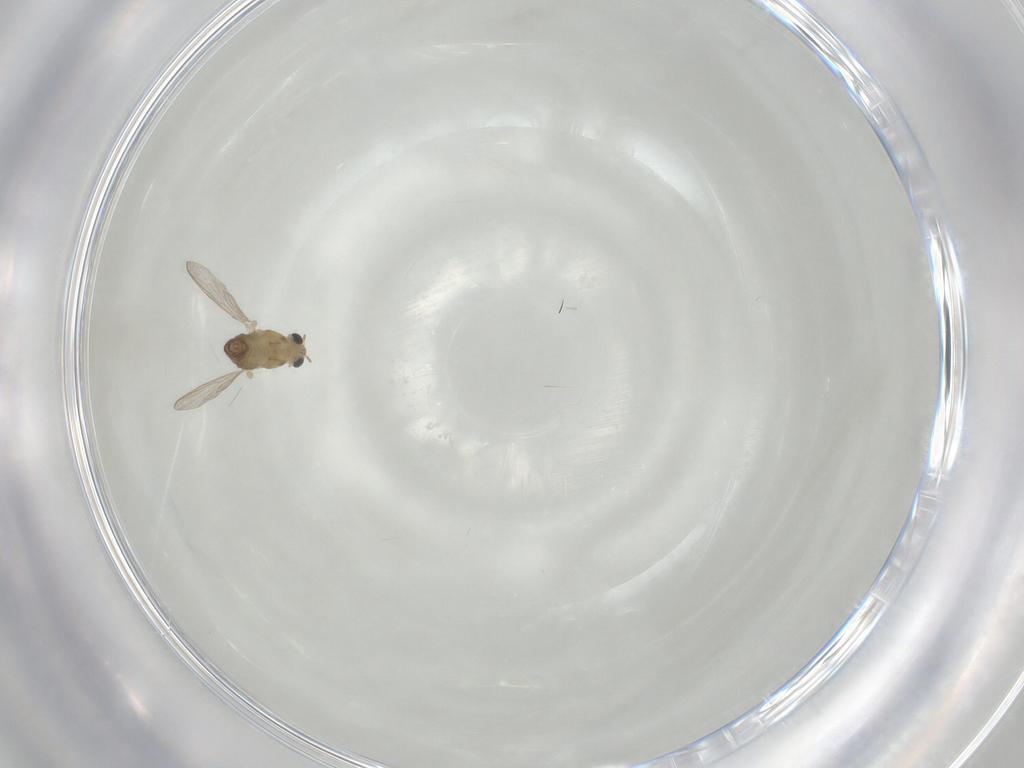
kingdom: Animalia
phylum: Arthropoda
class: Insecta
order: Diptera
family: Chironomidae
